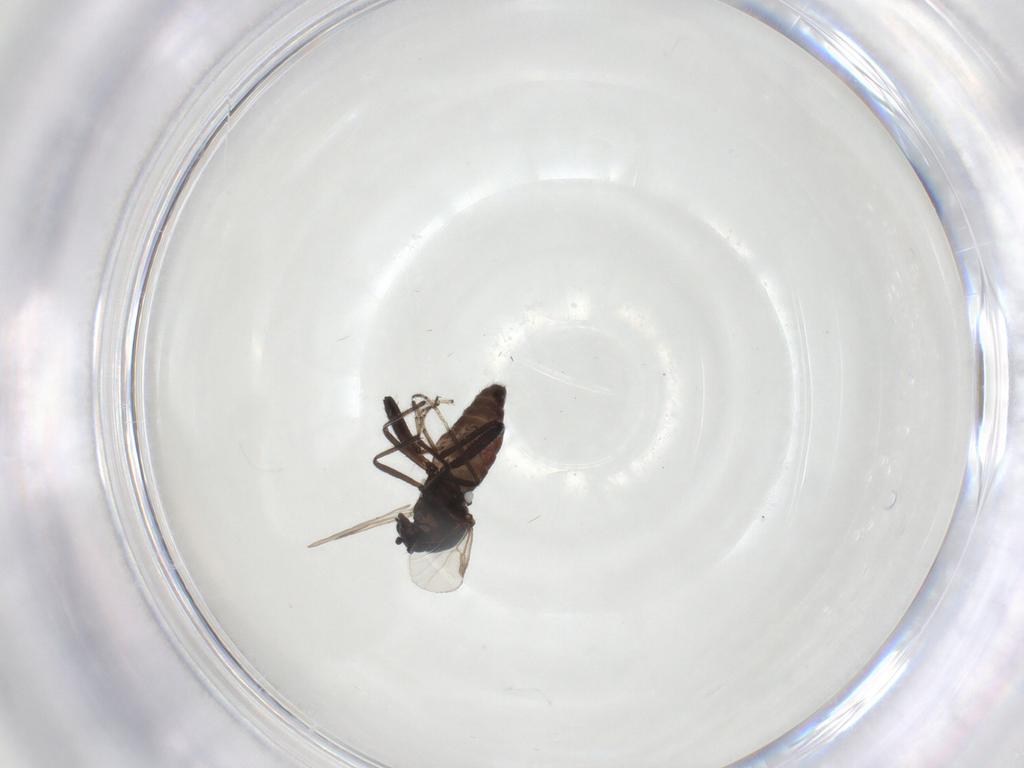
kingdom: Animalia
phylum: Arthropoda
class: Insecta
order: Diptera
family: Ceratopogonidae
